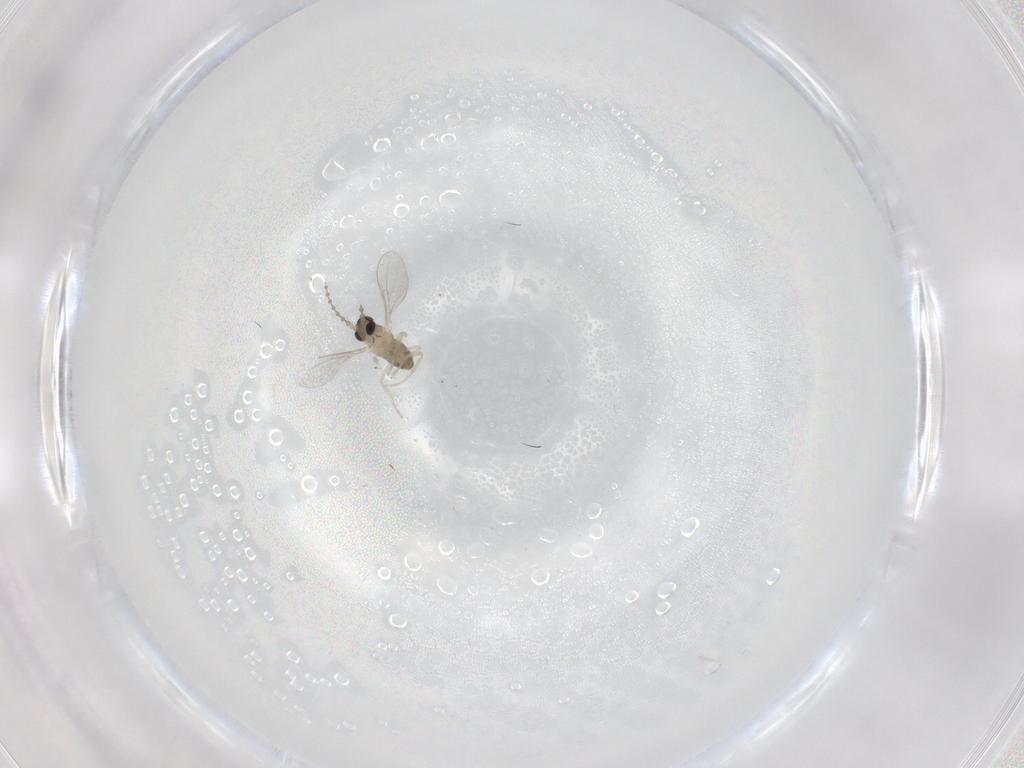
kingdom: Animalia
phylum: Arthropoda
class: Insecta
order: Diptera
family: Cecidomyiidae
